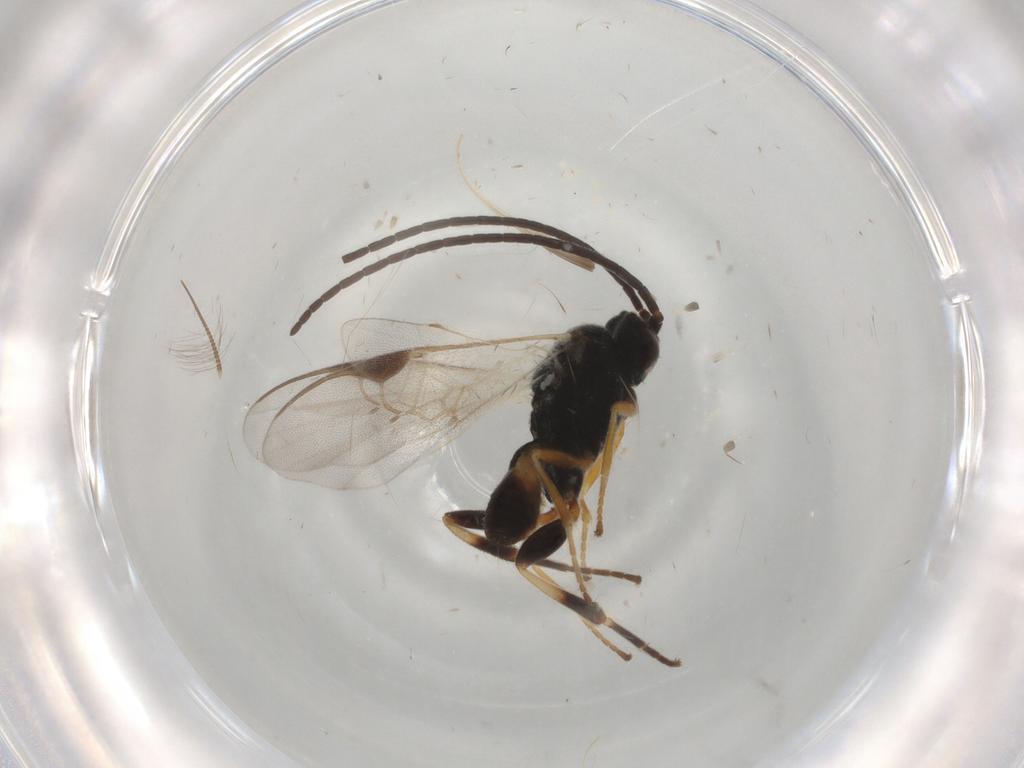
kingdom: Animalia
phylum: Arthropoda
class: Insecta
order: Hymenoptera
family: Braconidae
